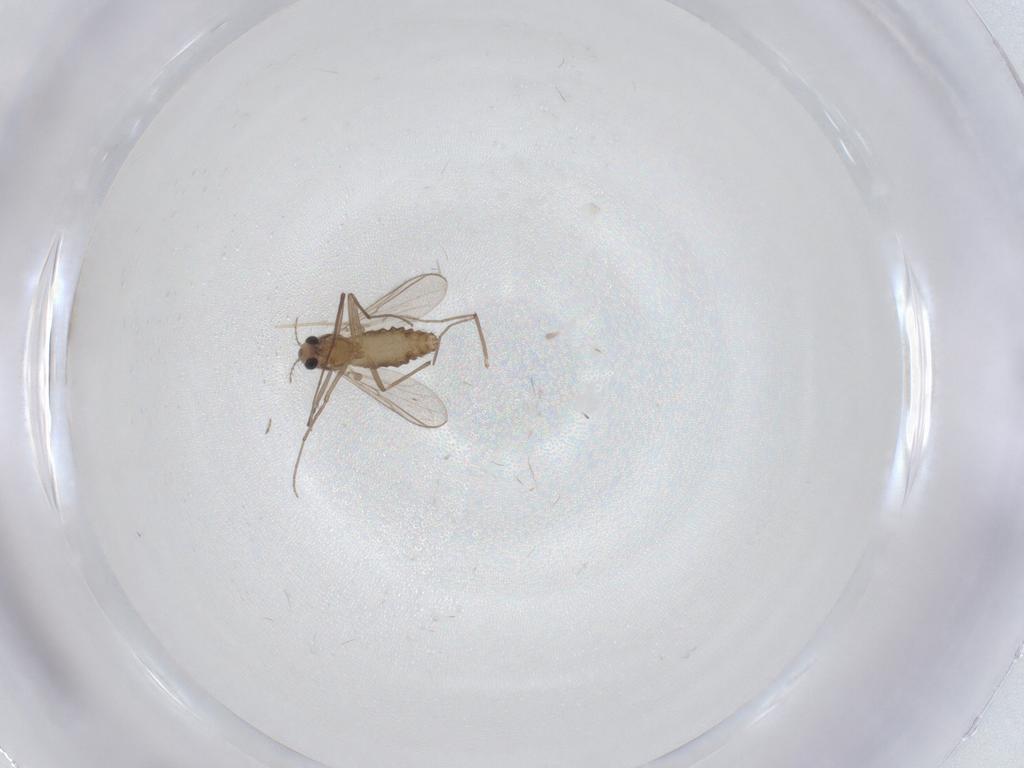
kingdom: Animalia
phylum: Arthropoda
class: Insecta
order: Diptera
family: Chironomidae
